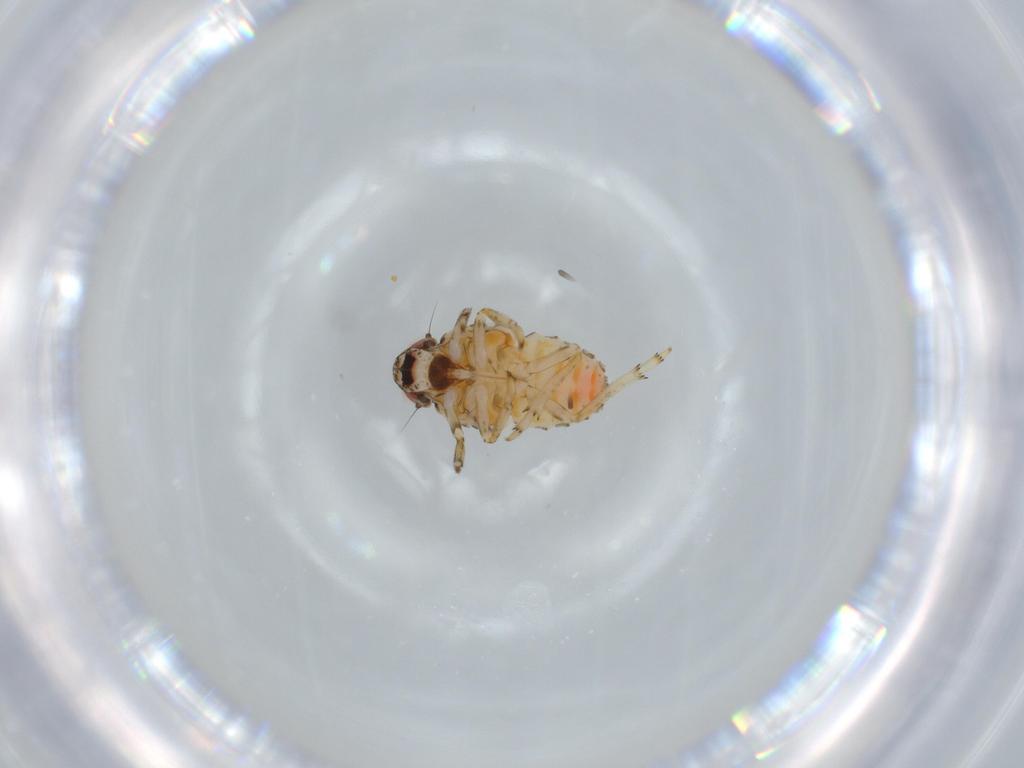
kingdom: Animalia
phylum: Arthropoda
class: Insecta
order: Hemiptera
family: Issidae
